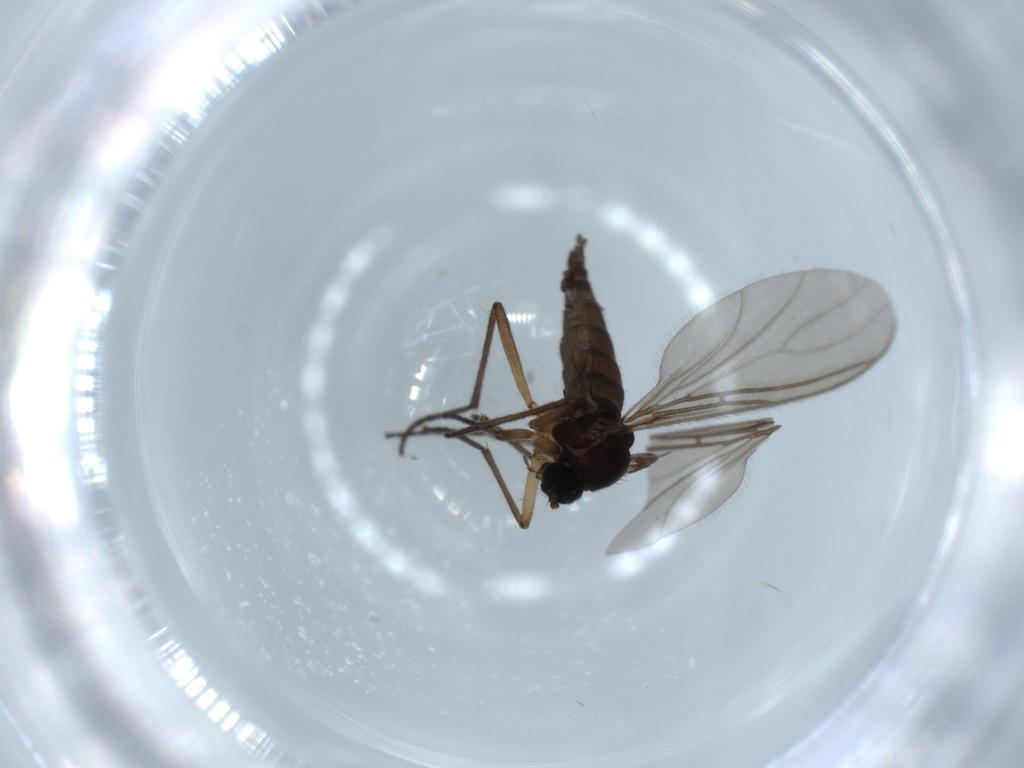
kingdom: Animalia
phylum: Arthropoda
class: Insecta
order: Diptera
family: Sciaridae
